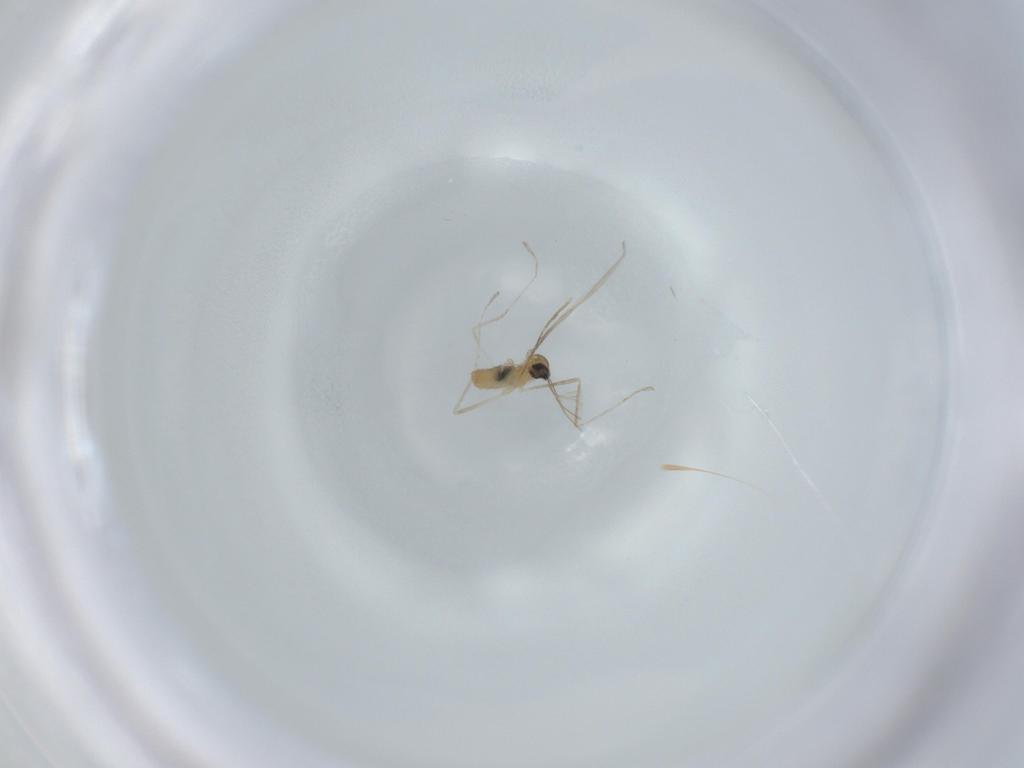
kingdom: Animalia
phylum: Arthropoda
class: Insecta
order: Diptera
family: Cecidomyiidae
